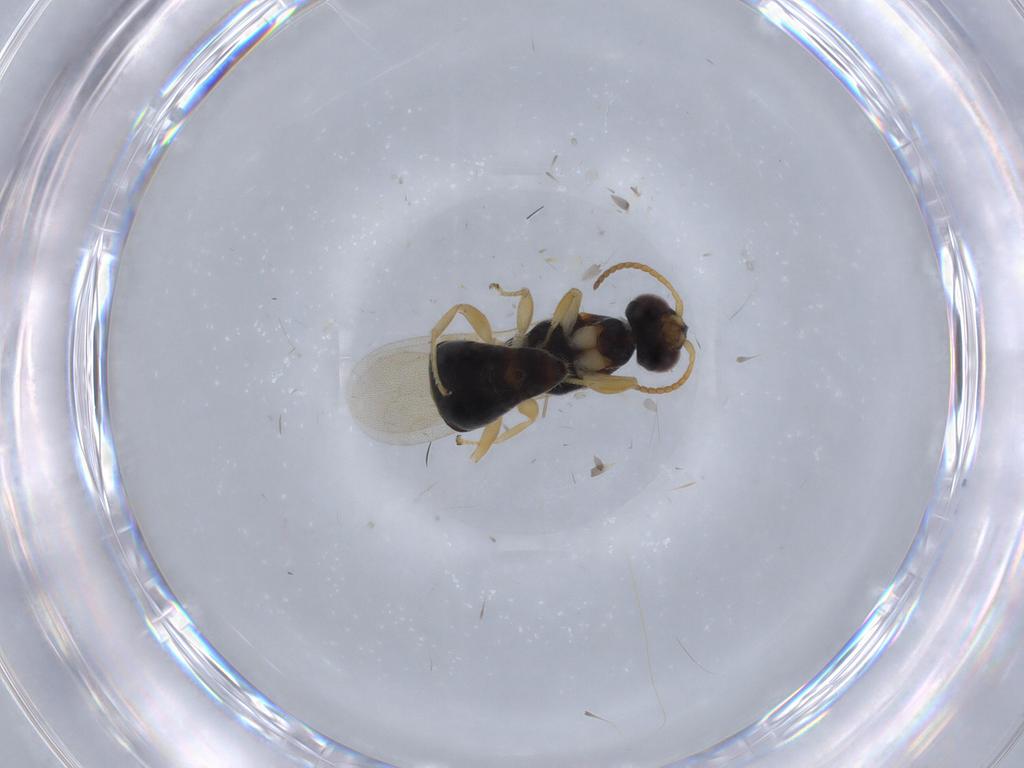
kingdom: Animalia
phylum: Arthropoda
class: Insecta
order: Hymenoptera
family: Bethylidae
